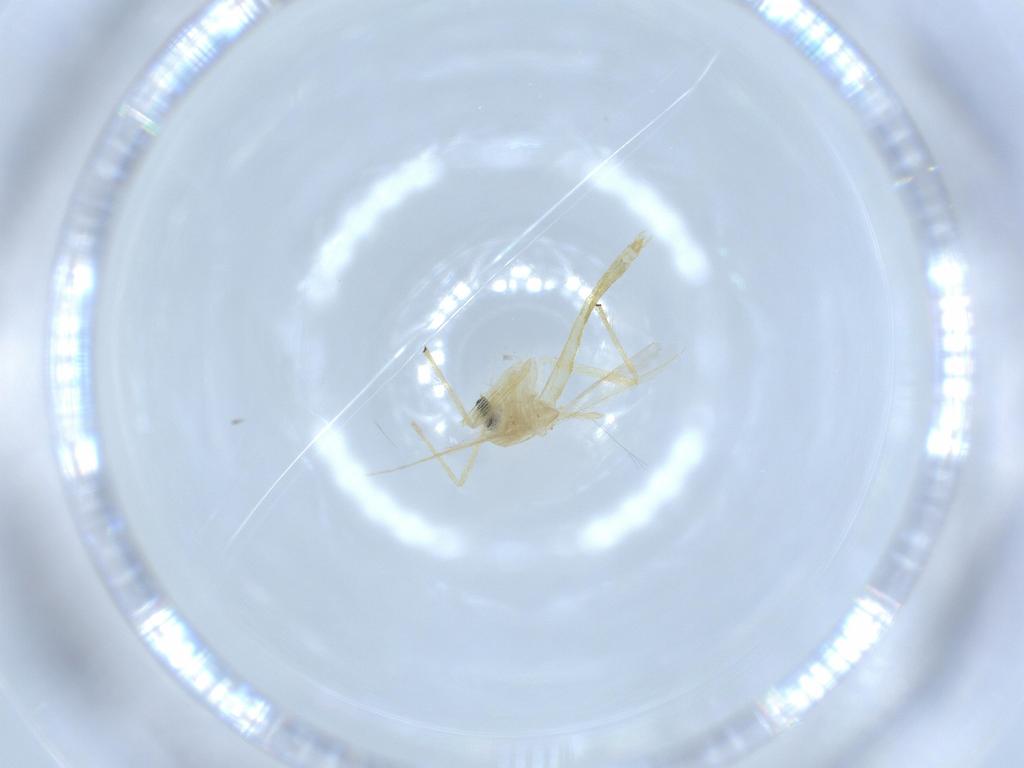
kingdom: Animalia
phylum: Arthropoda
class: Insecta
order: Diptera
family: Chironomidae
